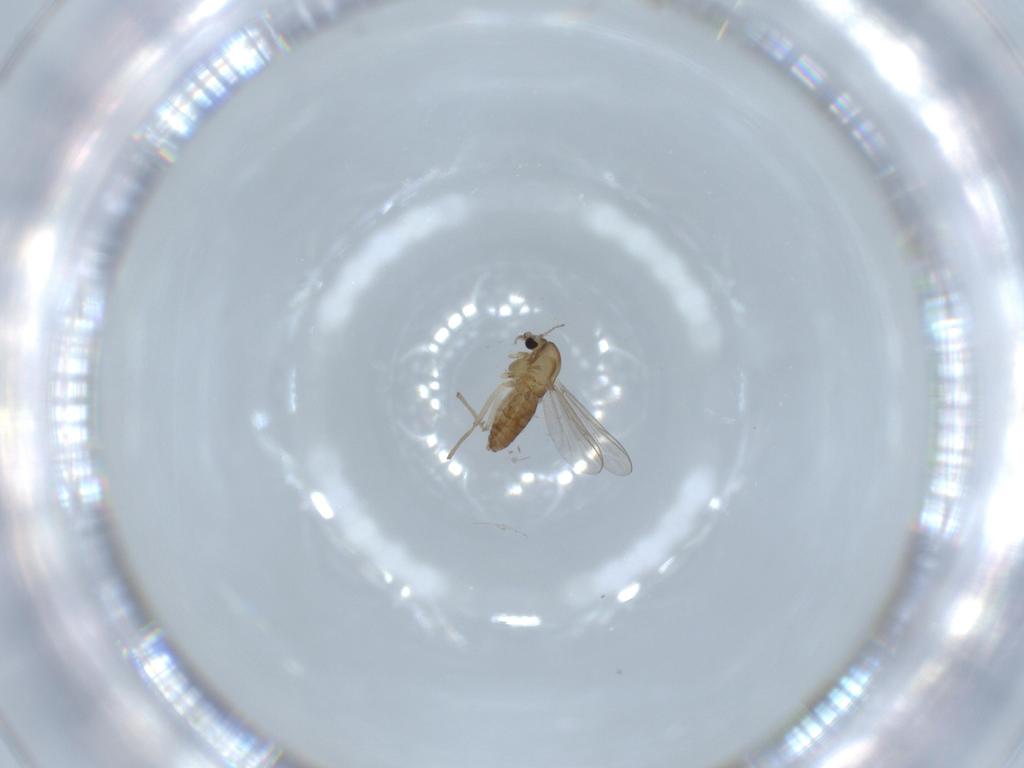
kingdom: Animalia
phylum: Arthropoda
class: Insecta
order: Diptera
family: Chironomidae
